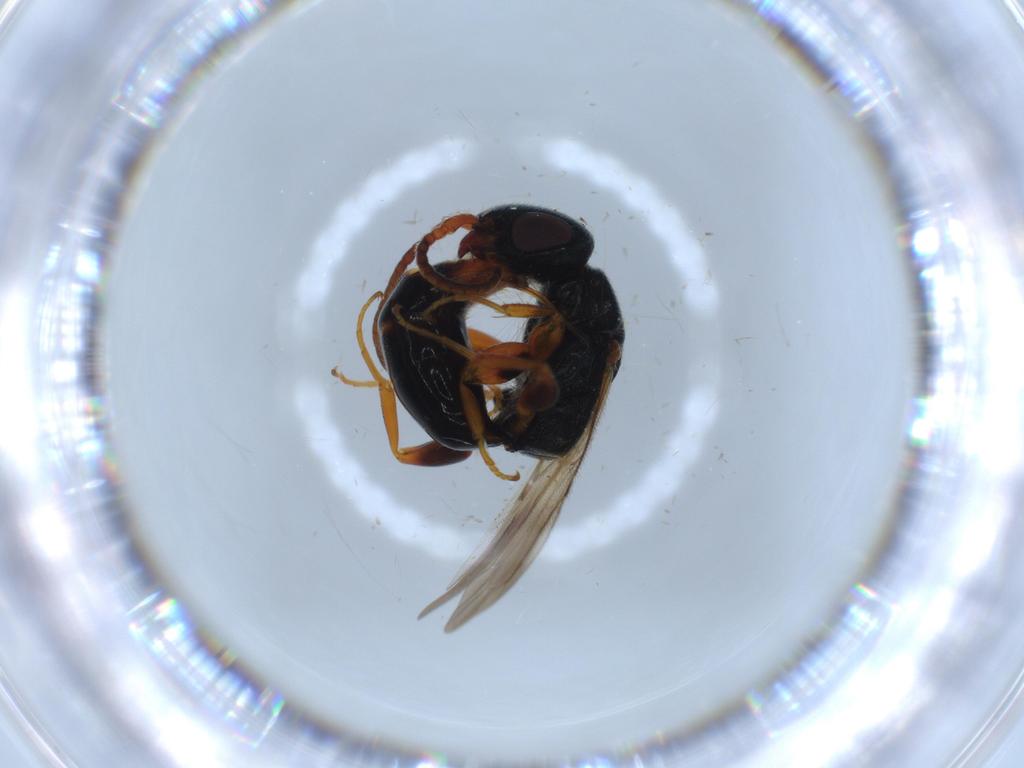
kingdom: Animalia
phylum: Arthropoda
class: Insecta
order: Hymenoptera
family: Bethylidae
